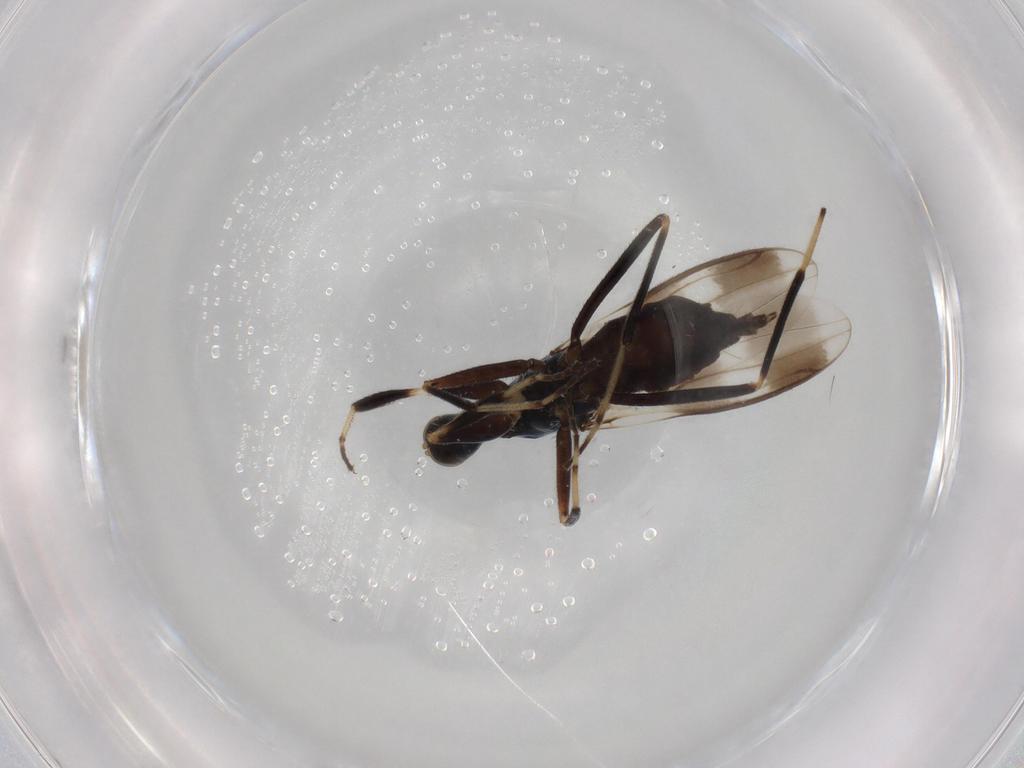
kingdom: Animalia
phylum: Arthropoda
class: Insecta
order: Diptera
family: Hybotidae
